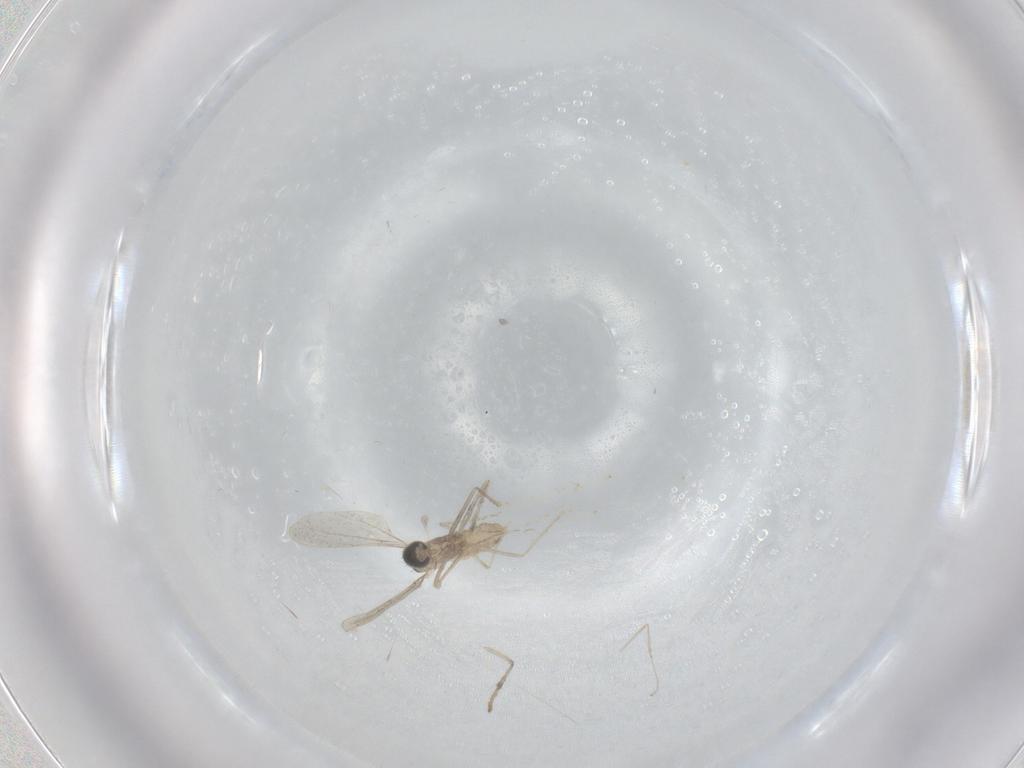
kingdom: Animalia
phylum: Arthropoda
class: Insecta
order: Diptera
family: Cecidomyiidae
